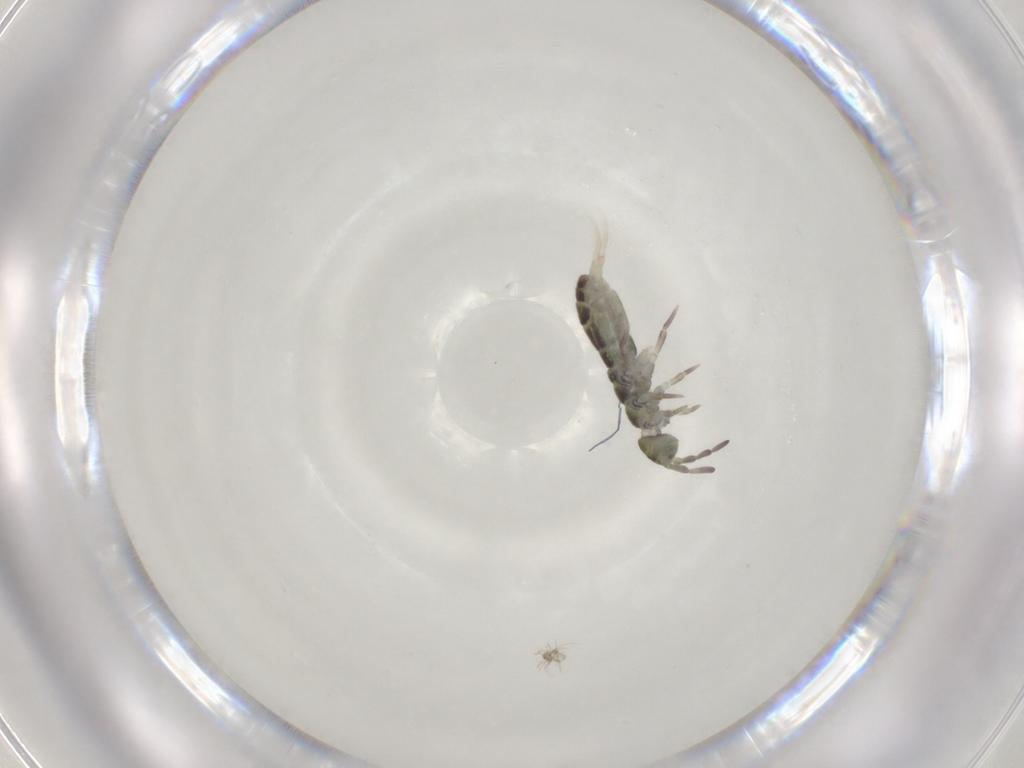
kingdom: Animalia
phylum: Arthropoda
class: Collembola
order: Entomobryomorpha
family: Isotomidae
